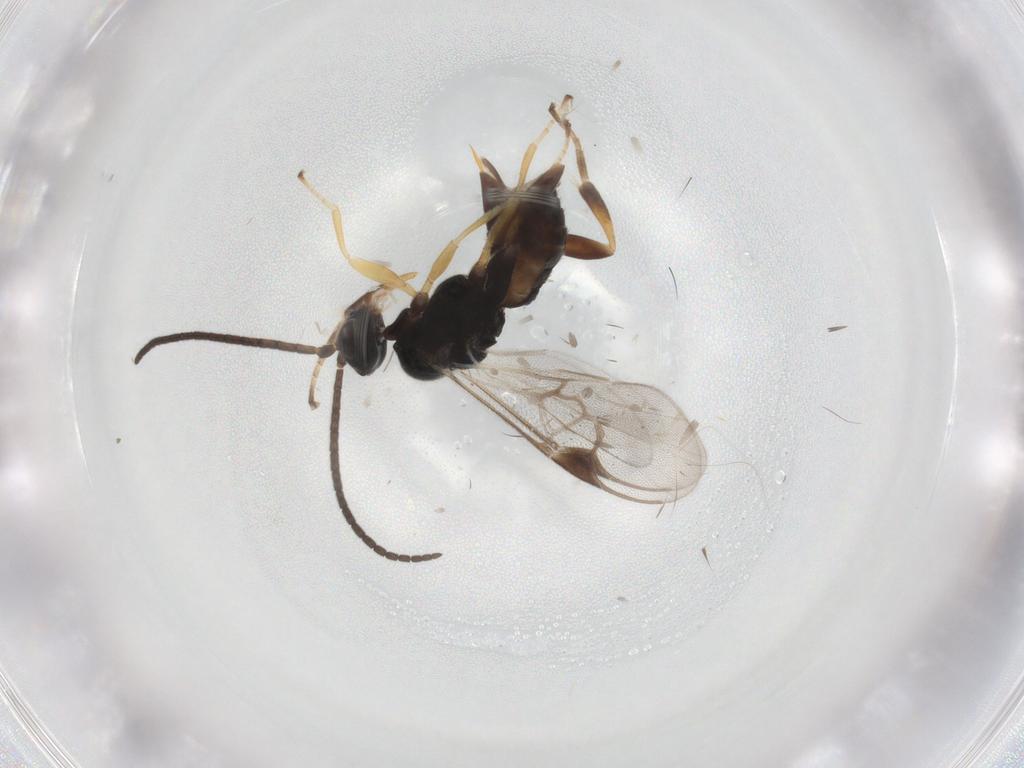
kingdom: Animalia
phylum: Arthropoda
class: Insecta
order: Hymenoptera
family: Braconidae
